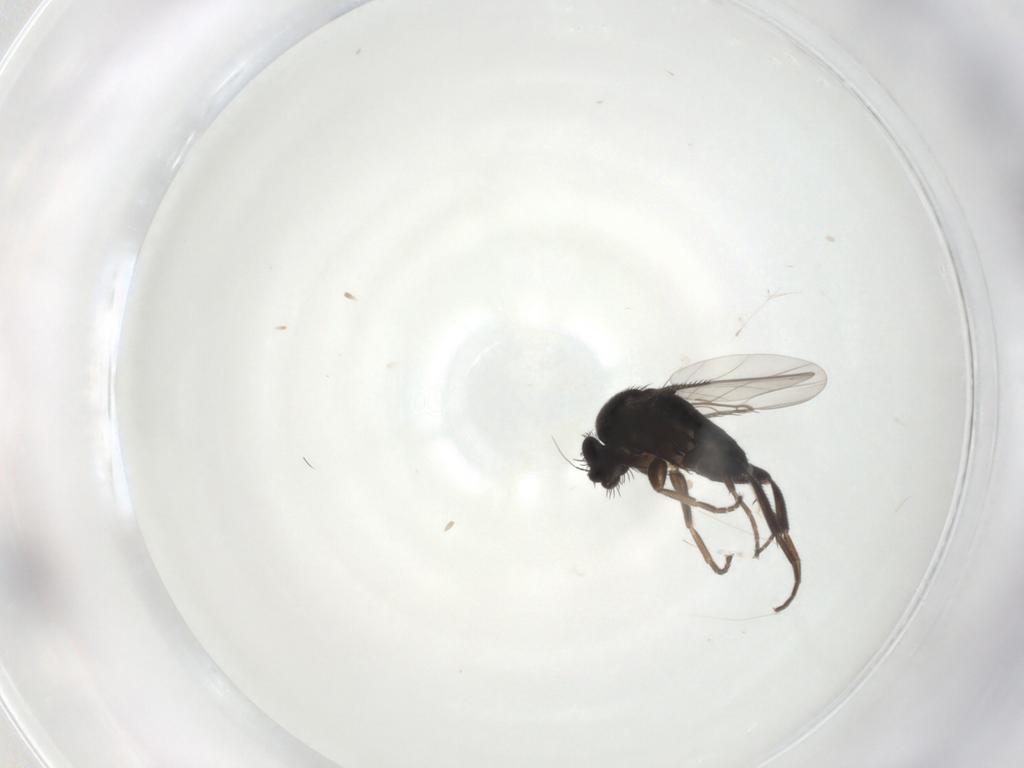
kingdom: Animalia
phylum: Arthropoda
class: Insecta
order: Diptera
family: Phoridae
